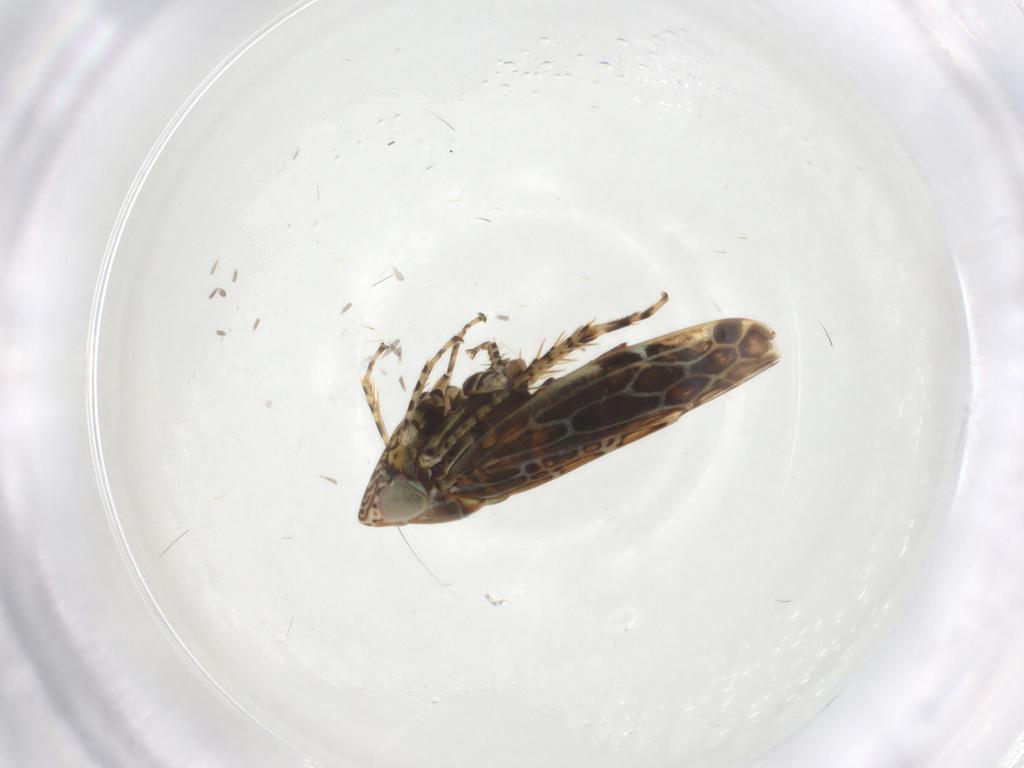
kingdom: Animalia
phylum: Arthropoda
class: Insecta
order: Hemiptera
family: Cicadellidae
